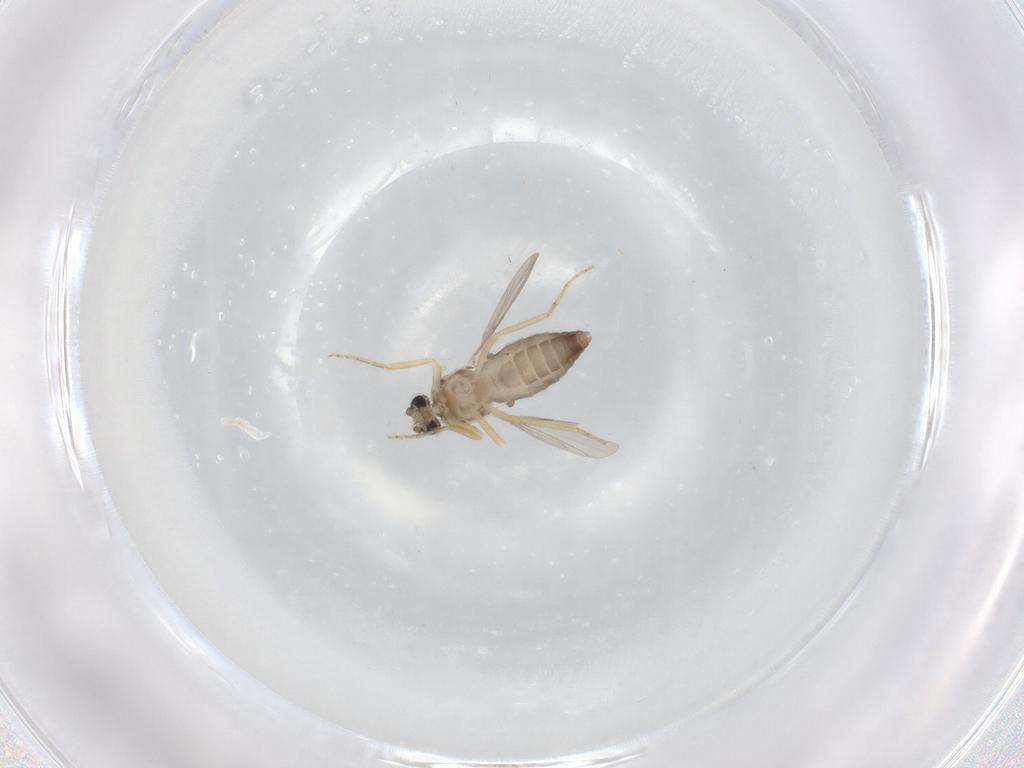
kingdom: Animalia
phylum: Arthropoda
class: Insecta
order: Diptera
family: Ceratopogonidae
